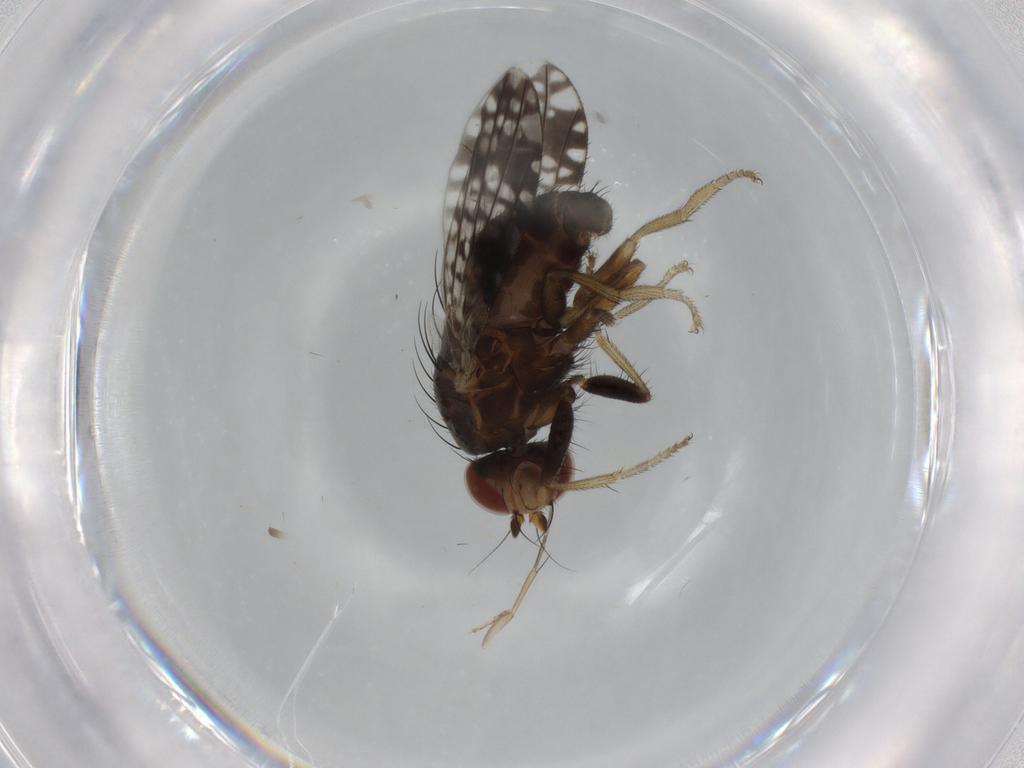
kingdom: Animalia
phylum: Arthropoda
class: Insecta
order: Diptera
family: Tephritidae
